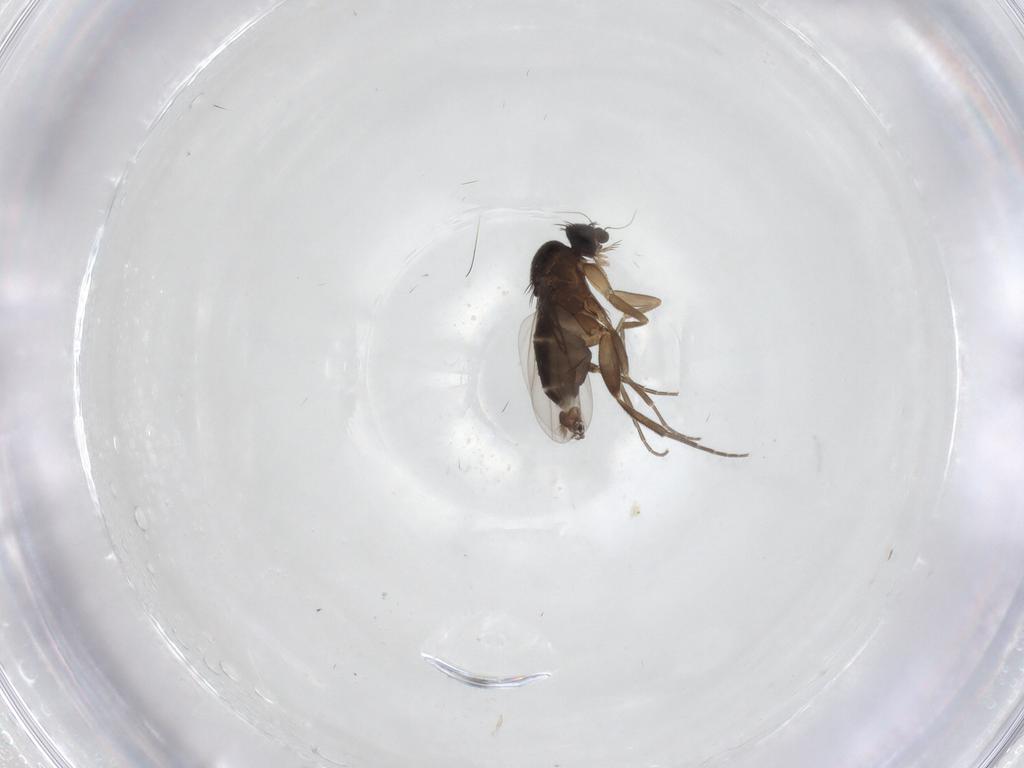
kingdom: Animalia
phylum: Arthropoda
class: Insecta
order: Diptera
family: Phoridae
